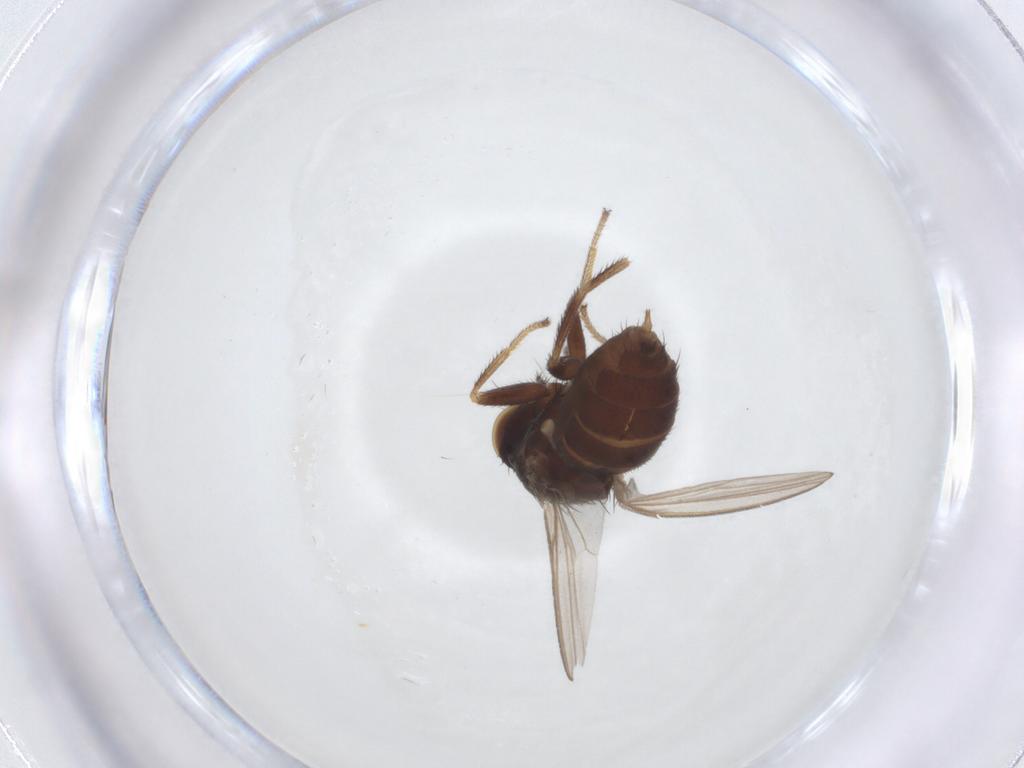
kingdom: Animalia
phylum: Arthropoda
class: Insecta
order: Diptera
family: Milichiidae
